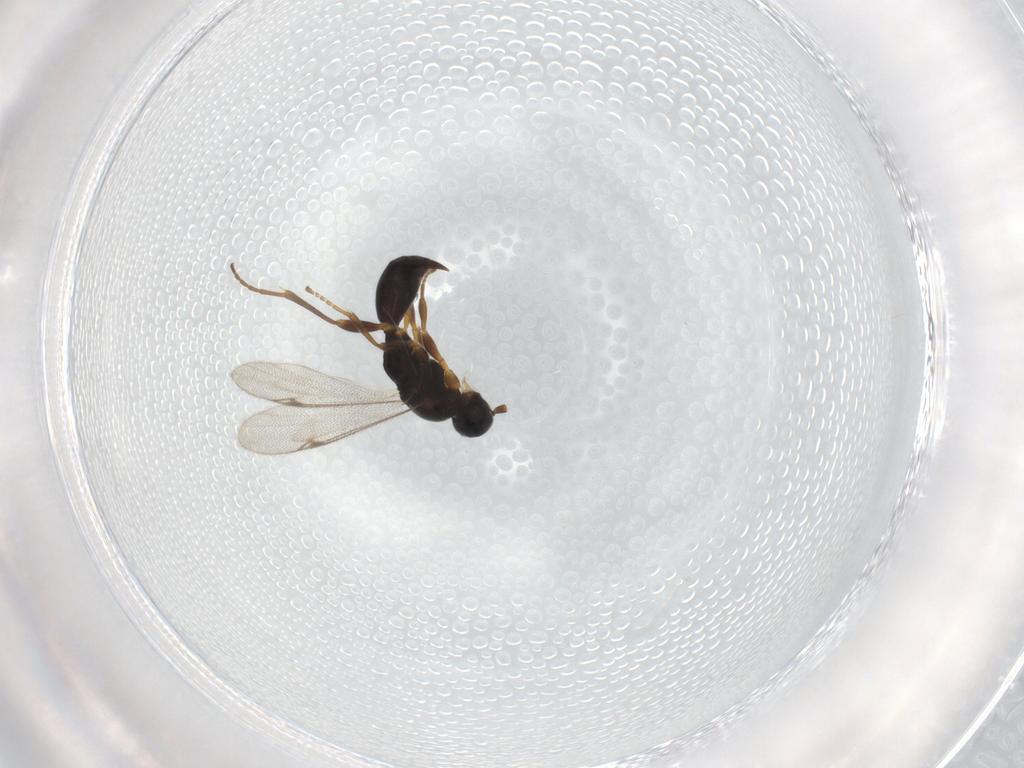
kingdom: Animalia
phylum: Arthropoda
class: Insecta
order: Hymenoptera
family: Proctotrupidae
